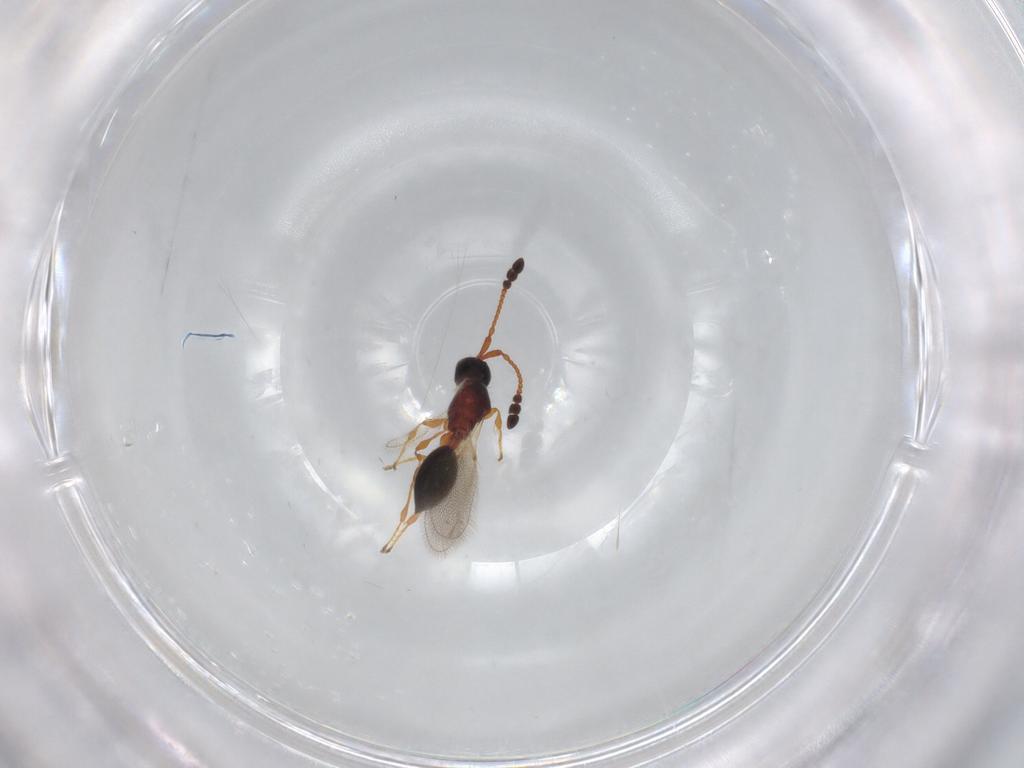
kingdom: Animalia
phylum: Arthropoda
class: Insecta
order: Hymenoptera
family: Diapriidae
